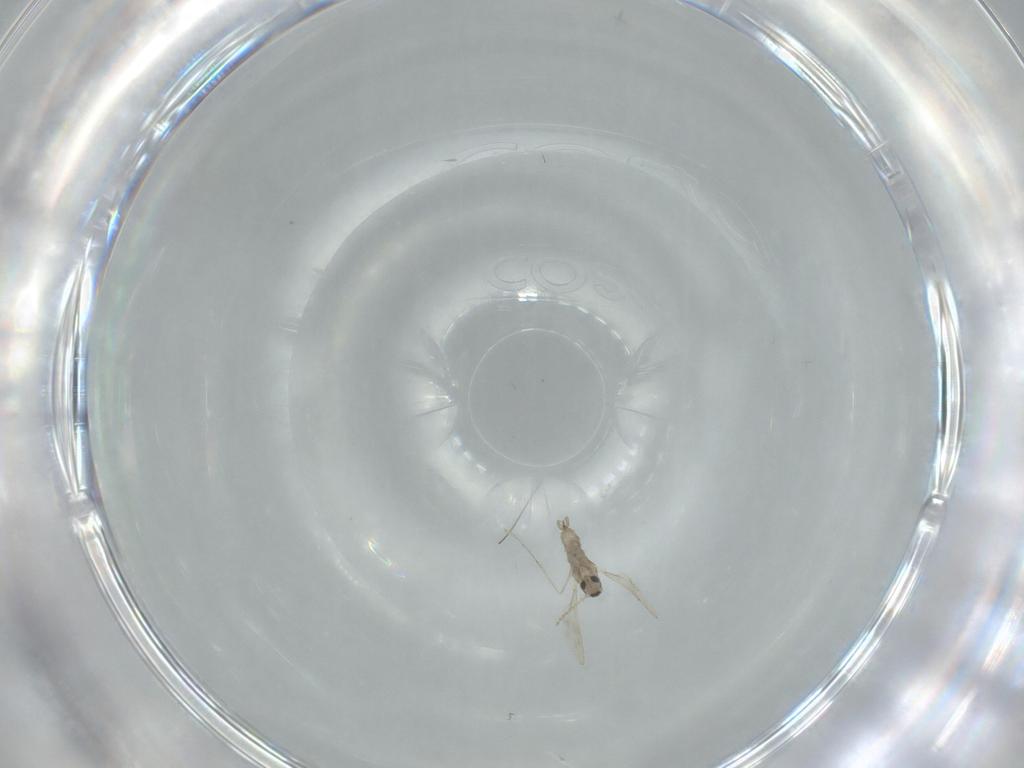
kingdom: Animalia
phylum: Arthropoda
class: Insecta
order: Diptera
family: Cecidomyiidae
